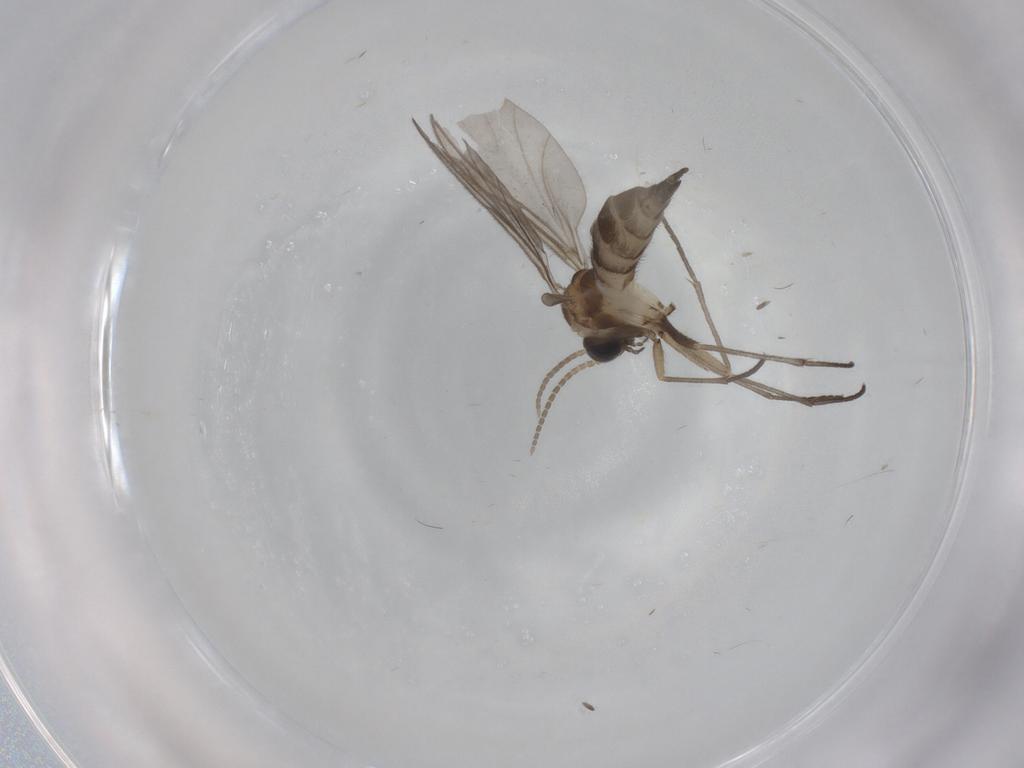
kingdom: Animalia
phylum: Arthropoda
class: Insecta
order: Diptera
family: Sciaridae
